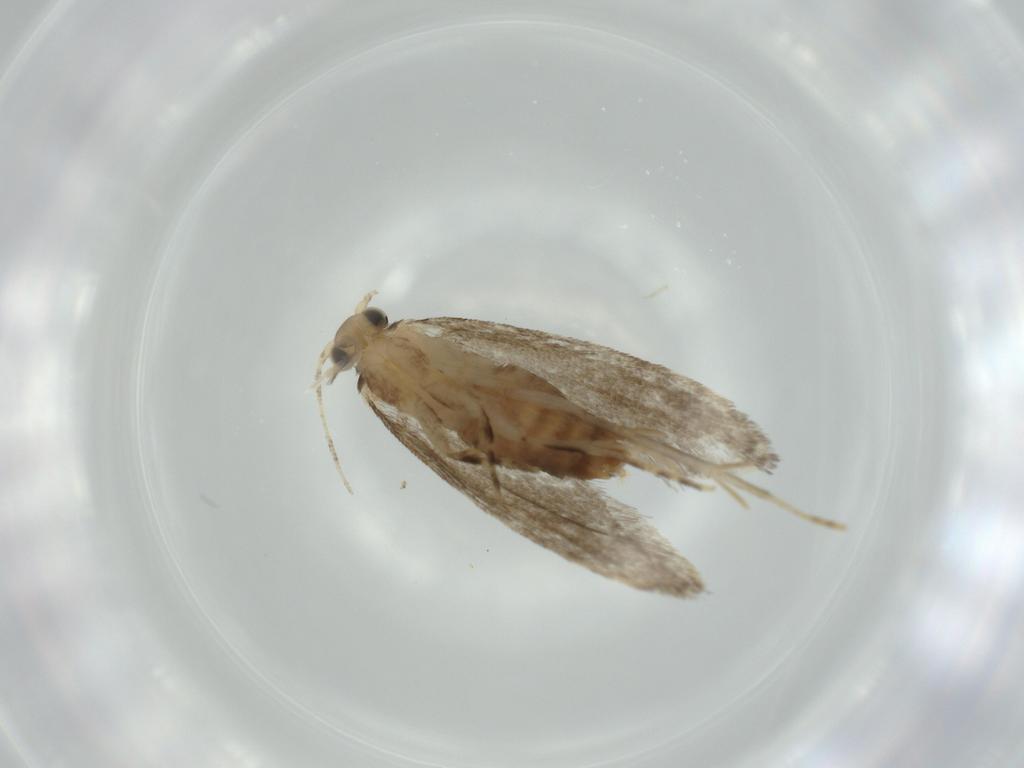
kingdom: Animalia
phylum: Arthropoda
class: Insecta
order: Lepidoptera
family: Tineidae
